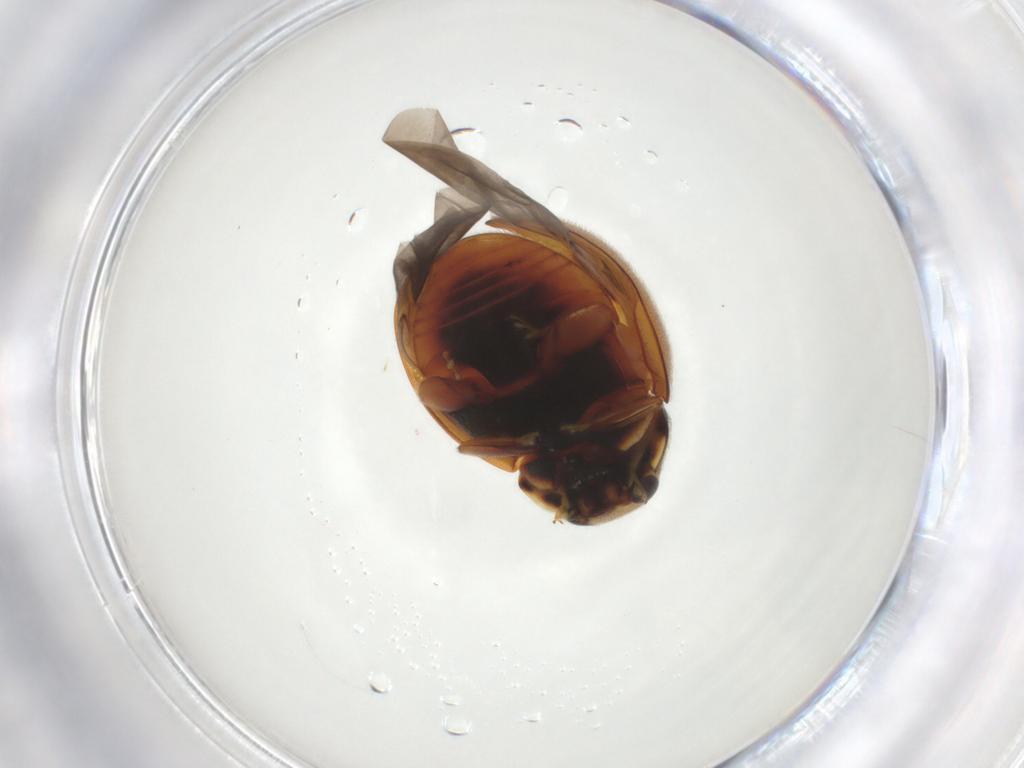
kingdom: Animalia
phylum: Arthropoda
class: Insecta
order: Coleoptera
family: Coccinellidae
